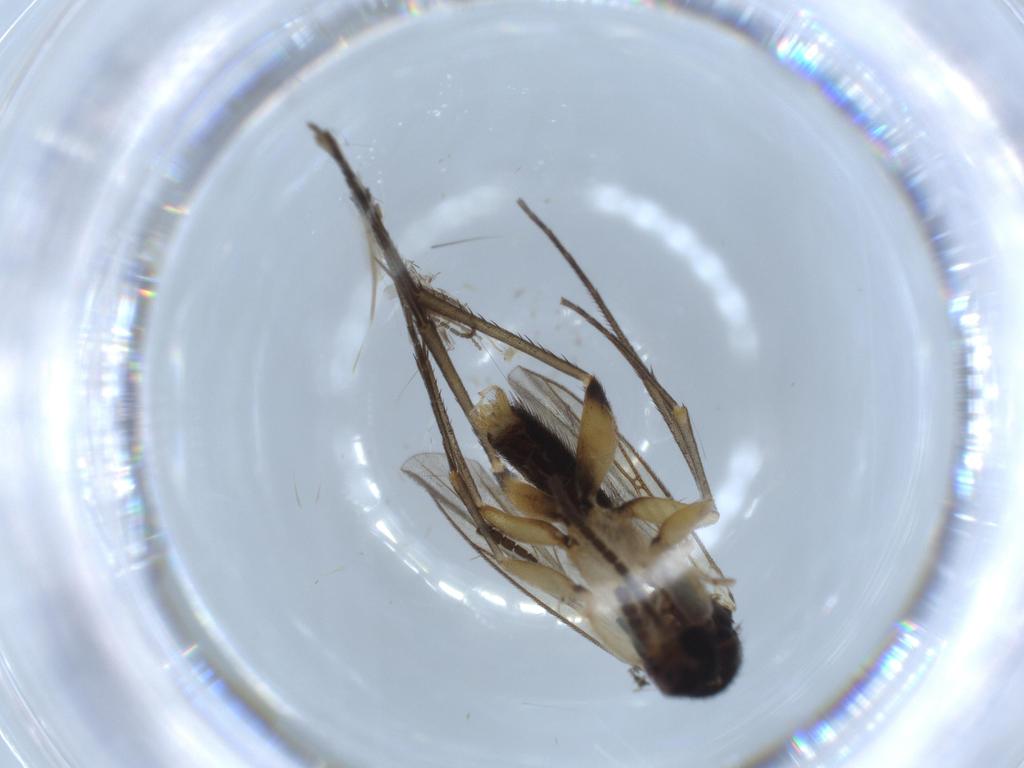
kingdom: Animalia
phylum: Arthropoda
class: Insecta
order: Diptera
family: Mycetophilidae
